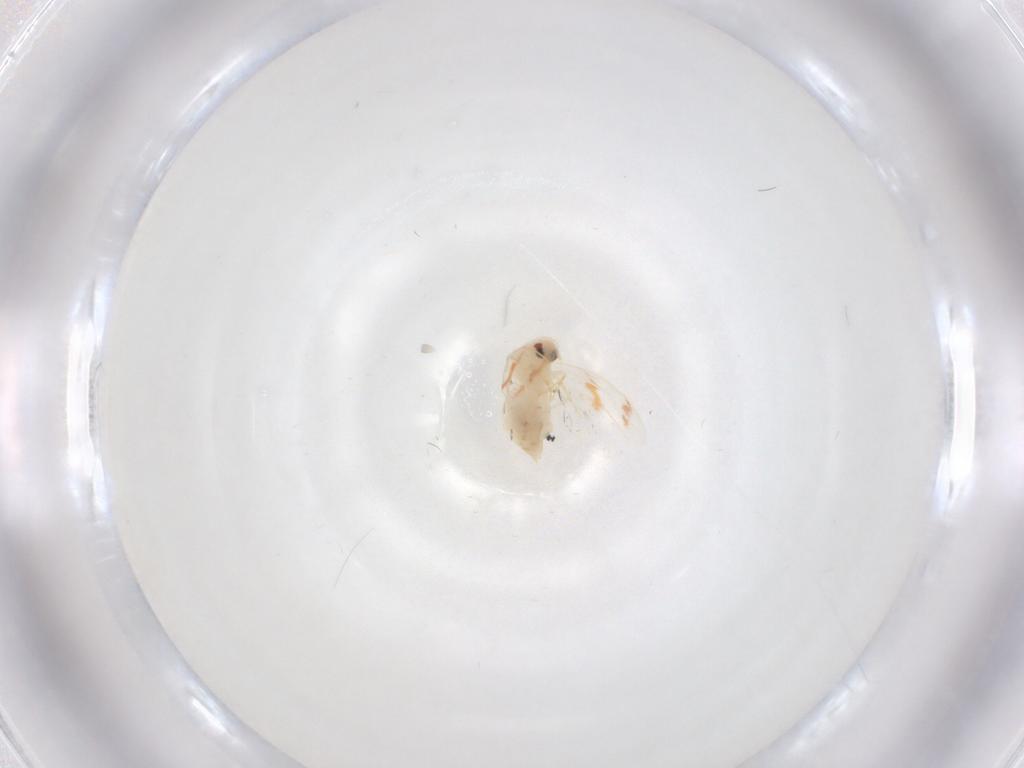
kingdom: Animalia
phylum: Arthropoda
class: Insecta
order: Hemiptera
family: Aleyrodidae
